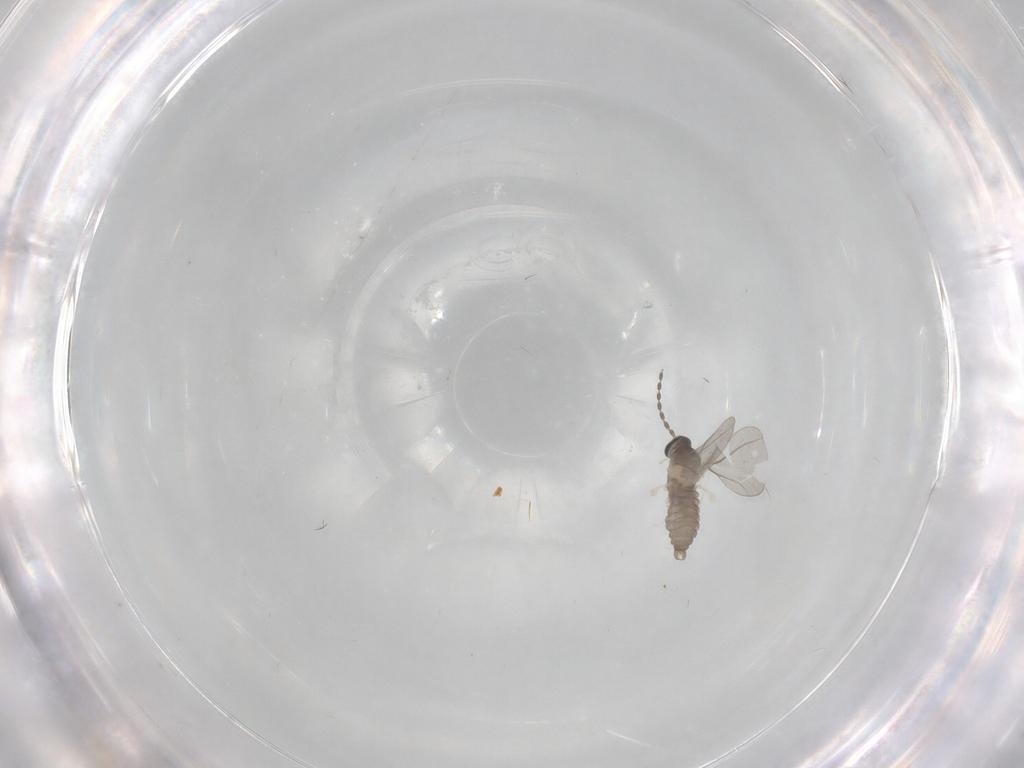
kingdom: Animalia
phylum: Arthropoda
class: Insecta
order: Diptera
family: Cecidomyiidae
